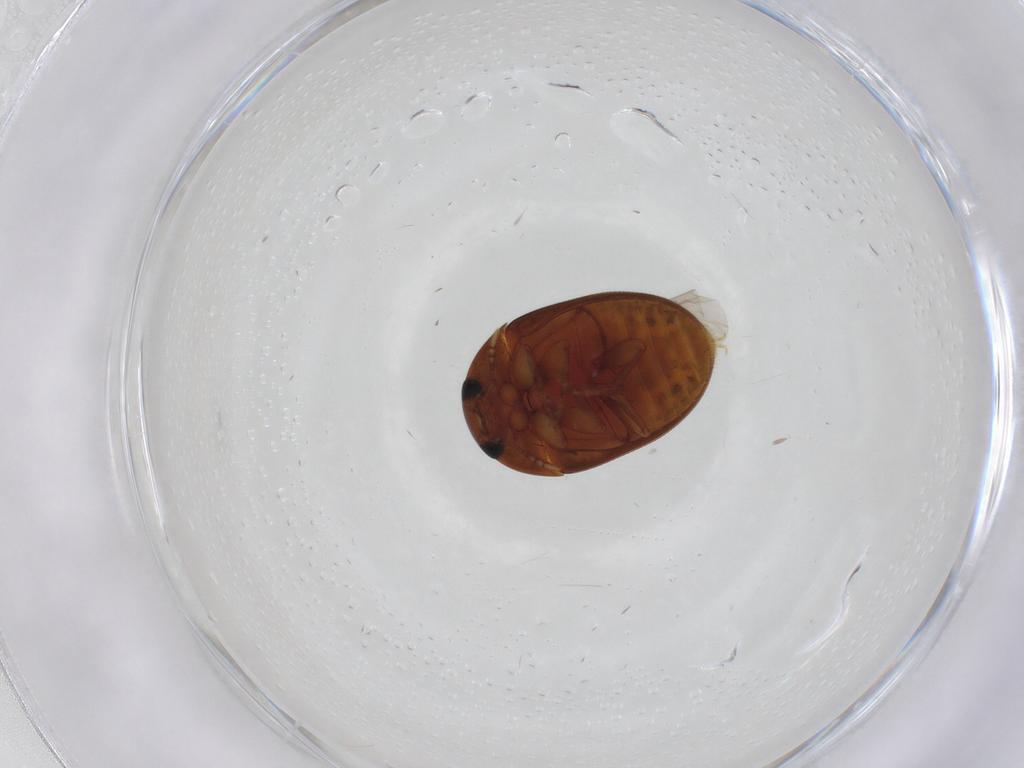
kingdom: Animalia
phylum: Arthropoda
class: Insecta
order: Coleoptera
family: Phalacridae
